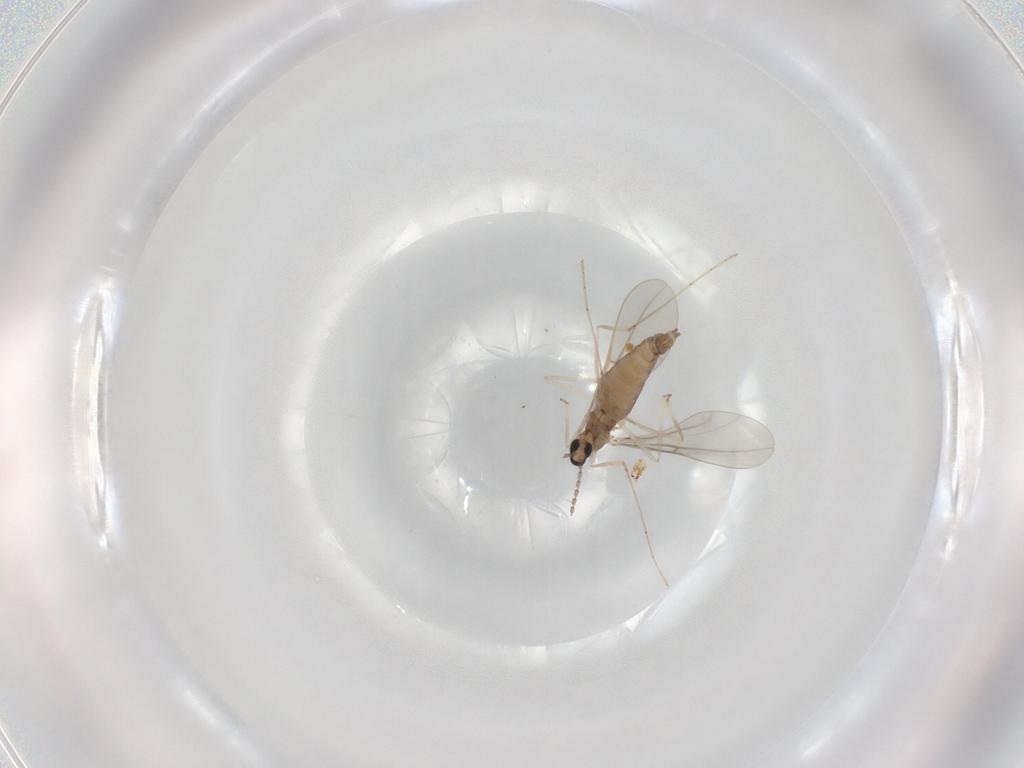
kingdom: Animalia
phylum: Arthropoda
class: Insecta
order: Diptera
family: Cecidomyiidae
